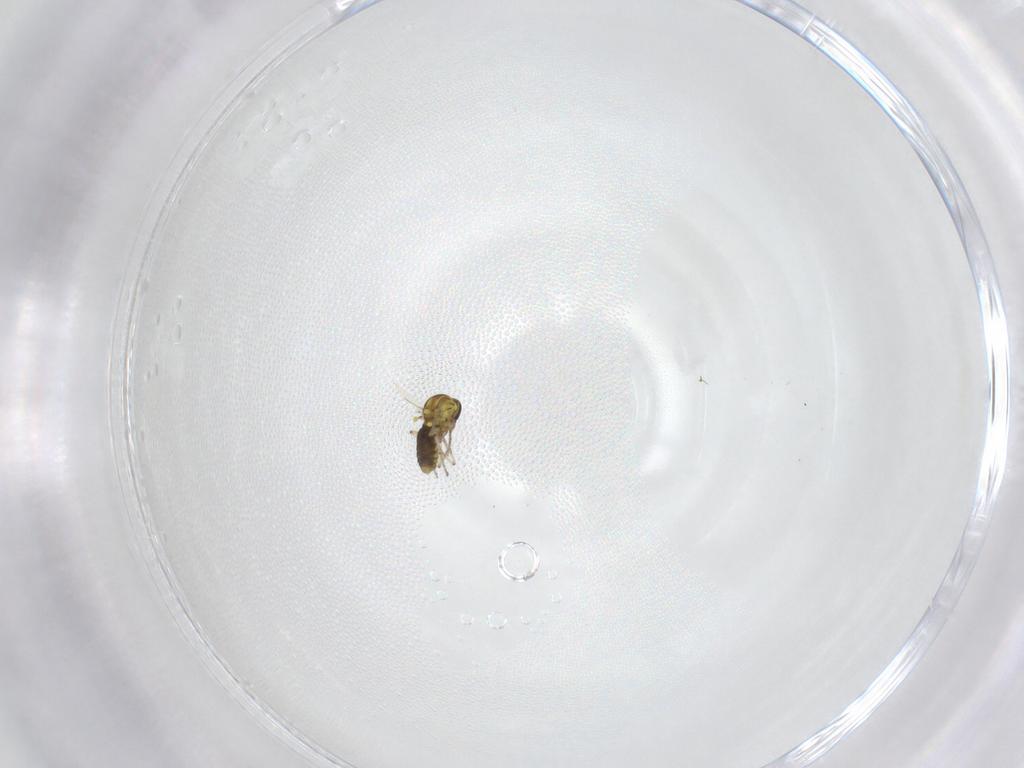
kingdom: Animalia
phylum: Arthropoda
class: Insecta
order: Diptera
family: Ceratopogonidae
